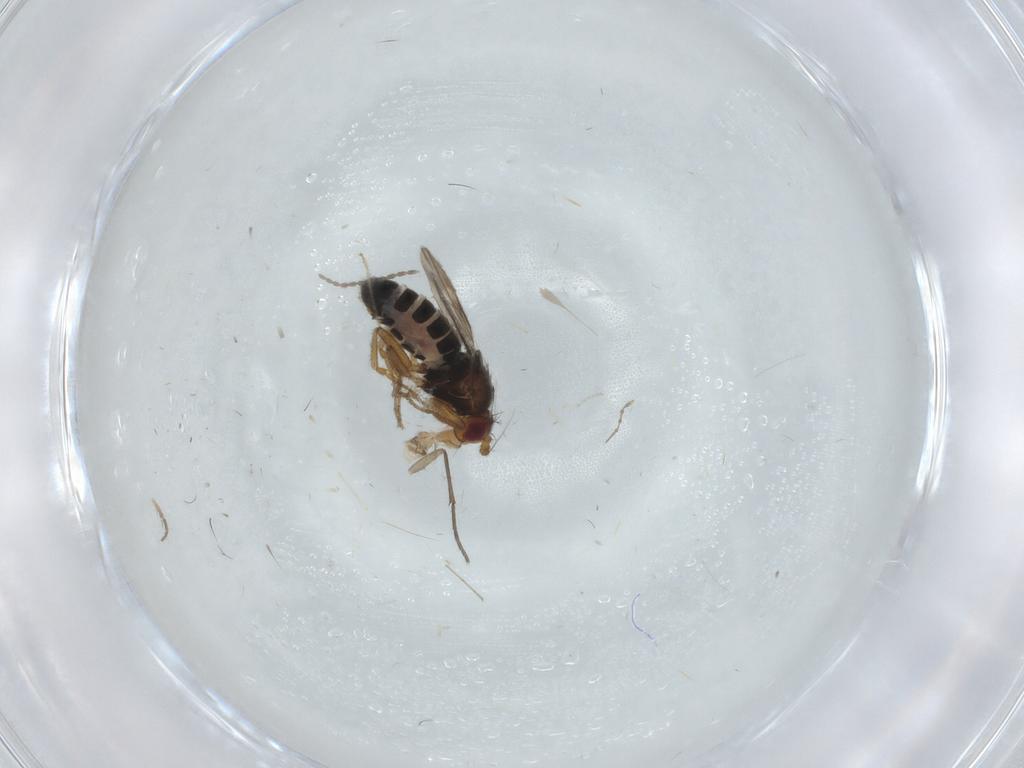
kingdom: Animalia
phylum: Arthropoda
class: Insecta
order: Diptera
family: Sphaeroceridae
